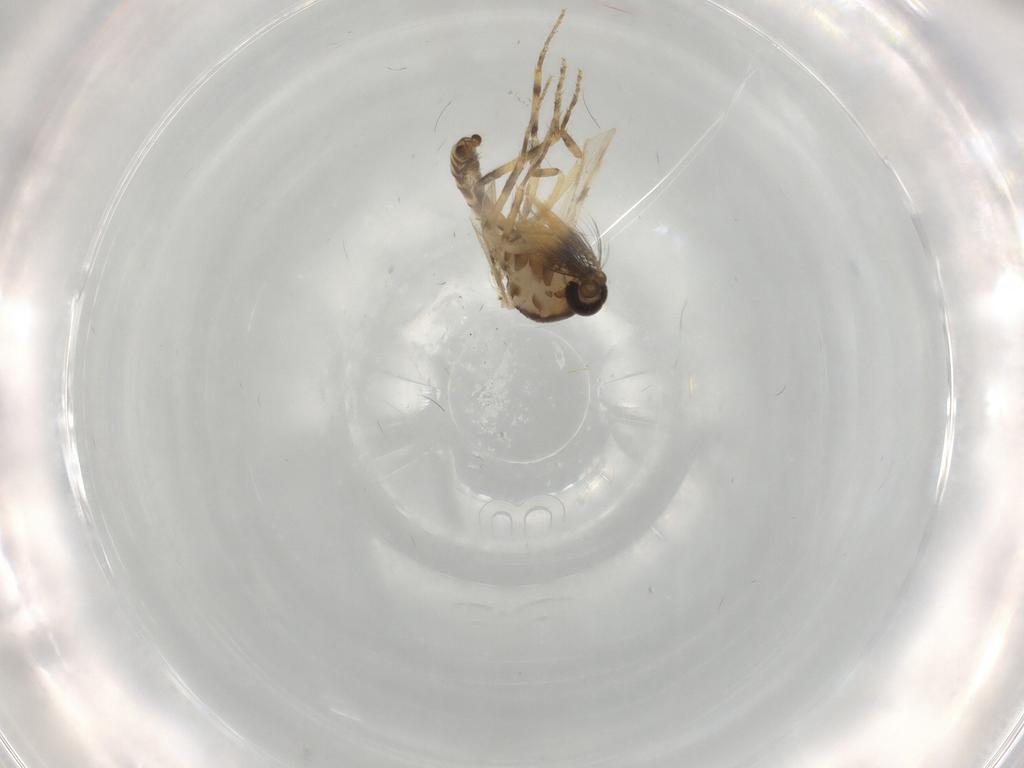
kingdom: Animalia
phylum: Arthropoda
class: Insecta
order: Diptera
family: Ceratopogonidae
